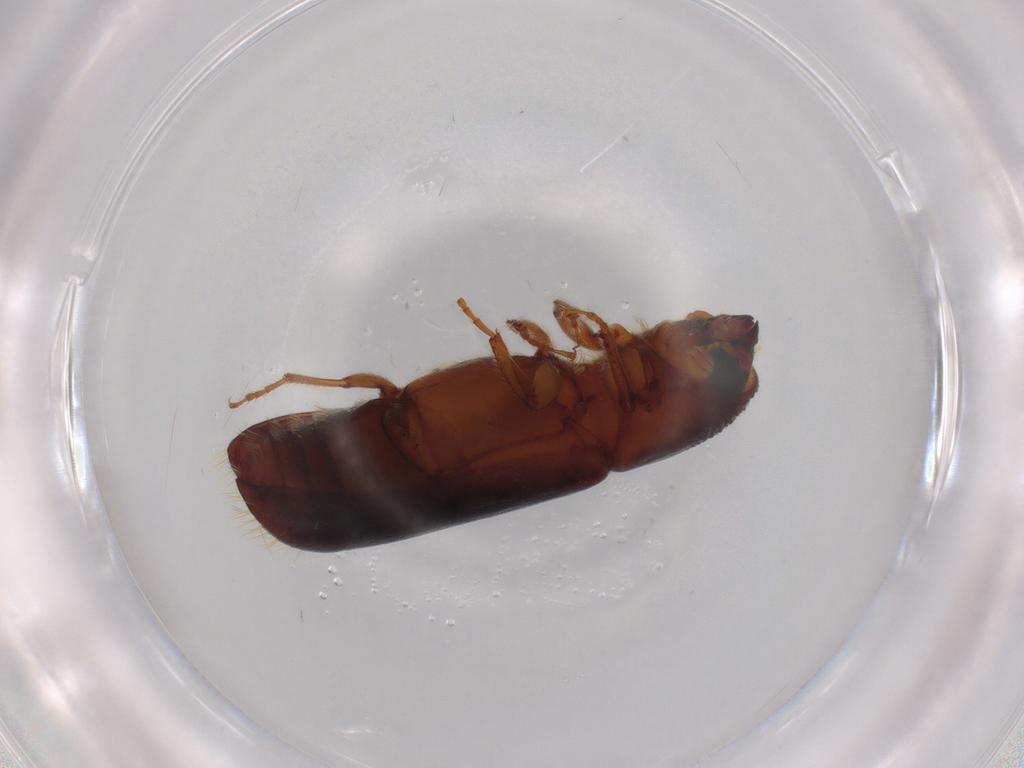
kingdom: Animalia
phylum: Arthropoda
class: Insecta
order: Coleoptera
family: Curculionidae
